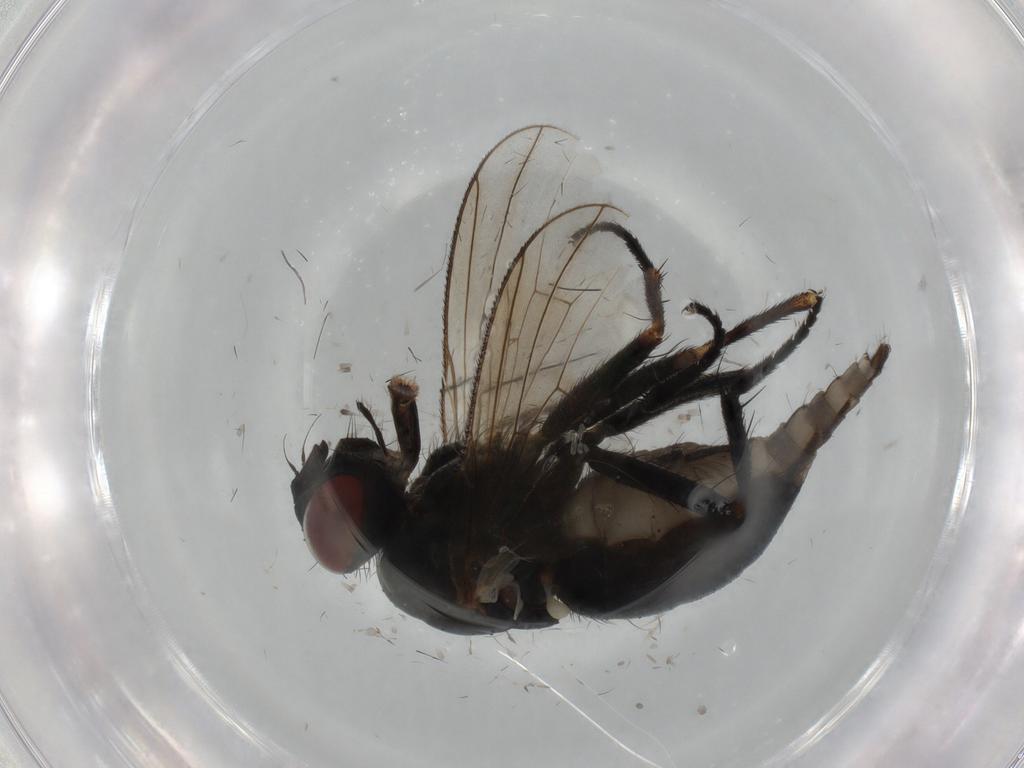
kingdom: Animalia
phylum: Arthropoda
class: Insecta
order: Diptera
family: Muscidae
